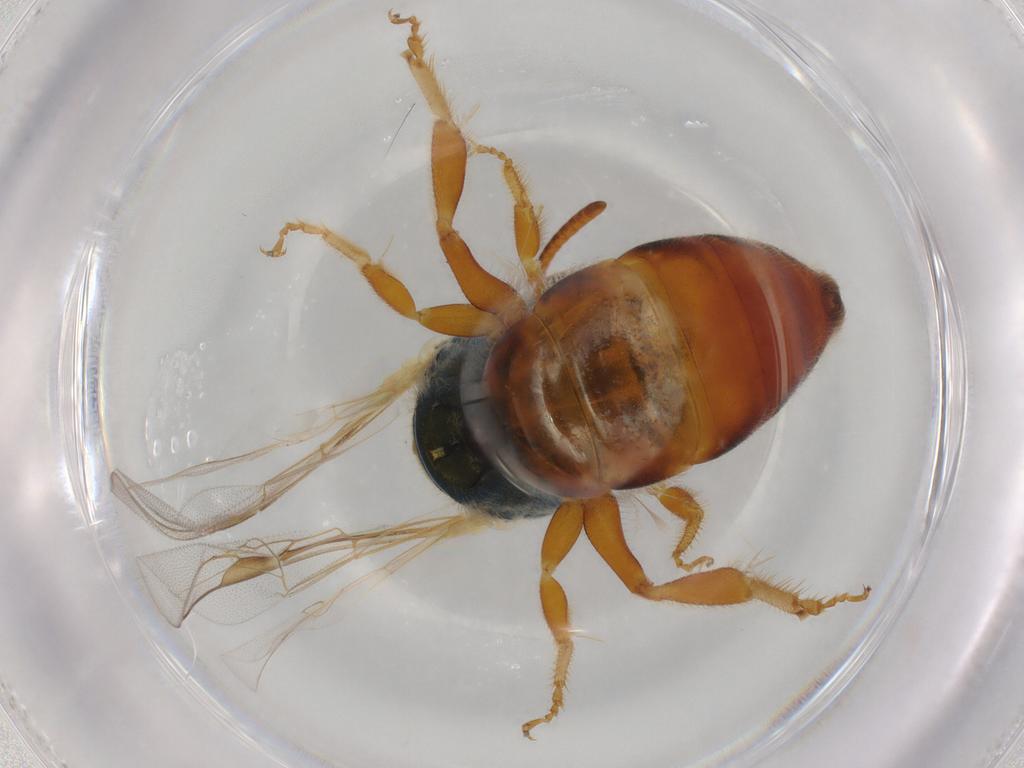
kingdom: Animalia
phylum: Arthropoda
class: Insecta
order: Hymenoptera
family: Halictidae
